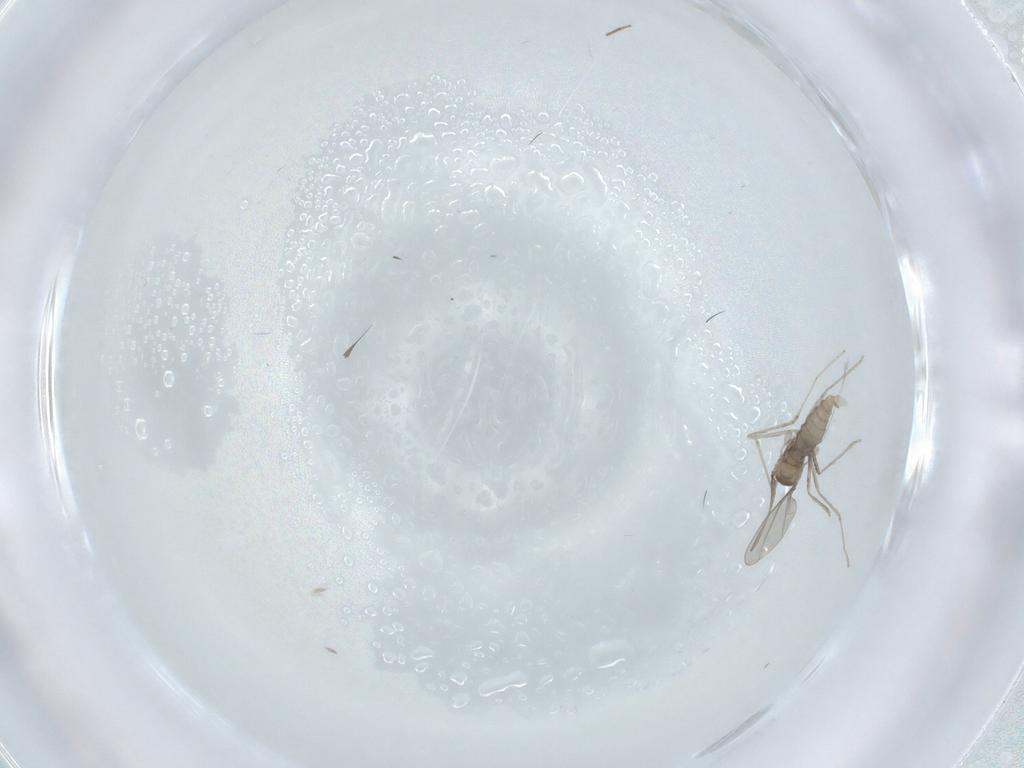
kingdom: Animalia
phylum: Arthropoda
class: Insecta
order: Diptera
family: Cecidomyiidae
